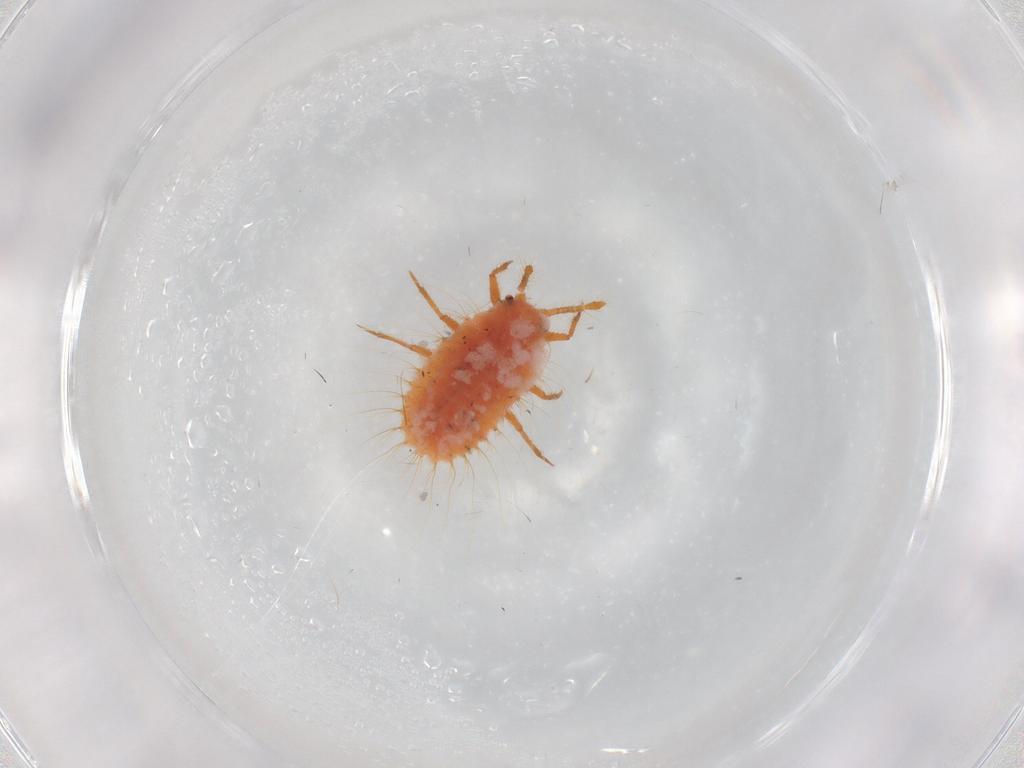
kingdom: Animalia
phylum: Arthropoda
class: Insecta
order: Hemiptera
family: Coccoidea_incertae_sedis
